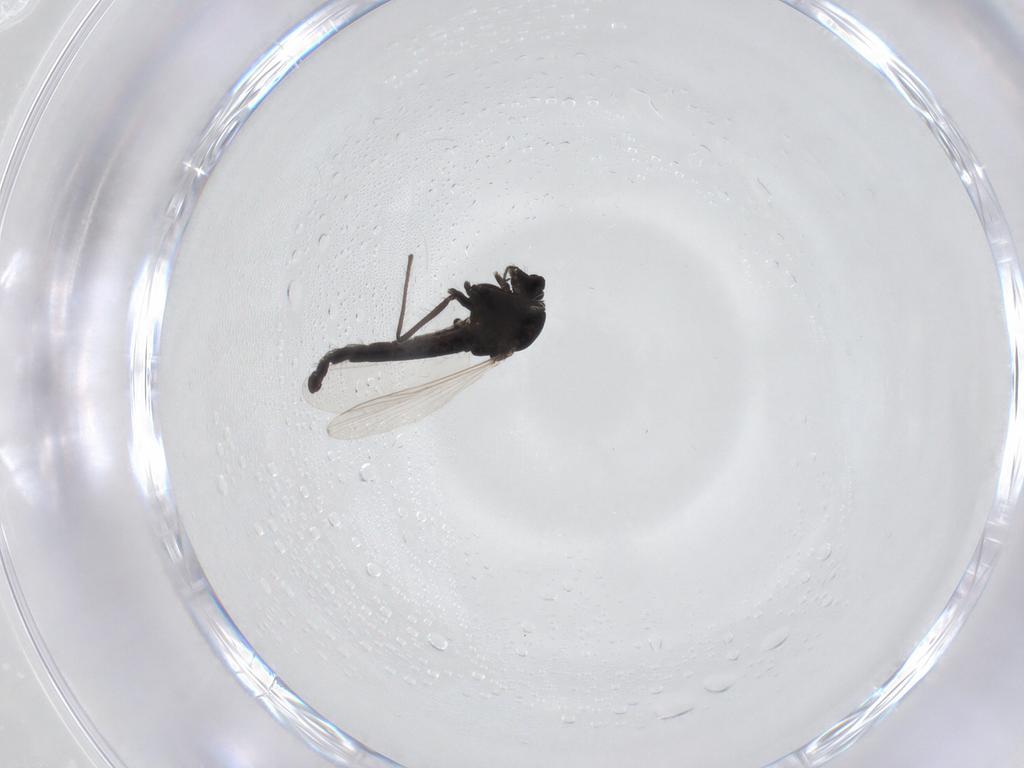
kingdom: Animalia
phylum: Arthropoda
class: Insecta
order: Diptera
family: Chironomidae
